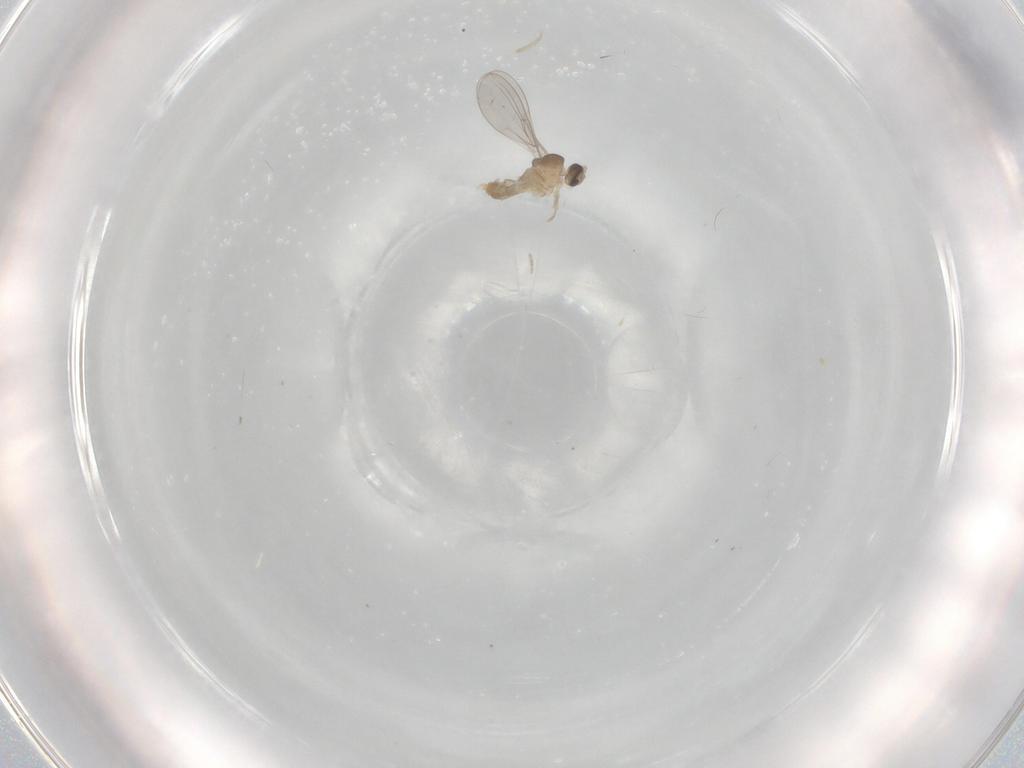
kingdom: Animalia
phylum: Arthropoda
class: Insecta
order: Diptera
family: Cecidomyiidae
